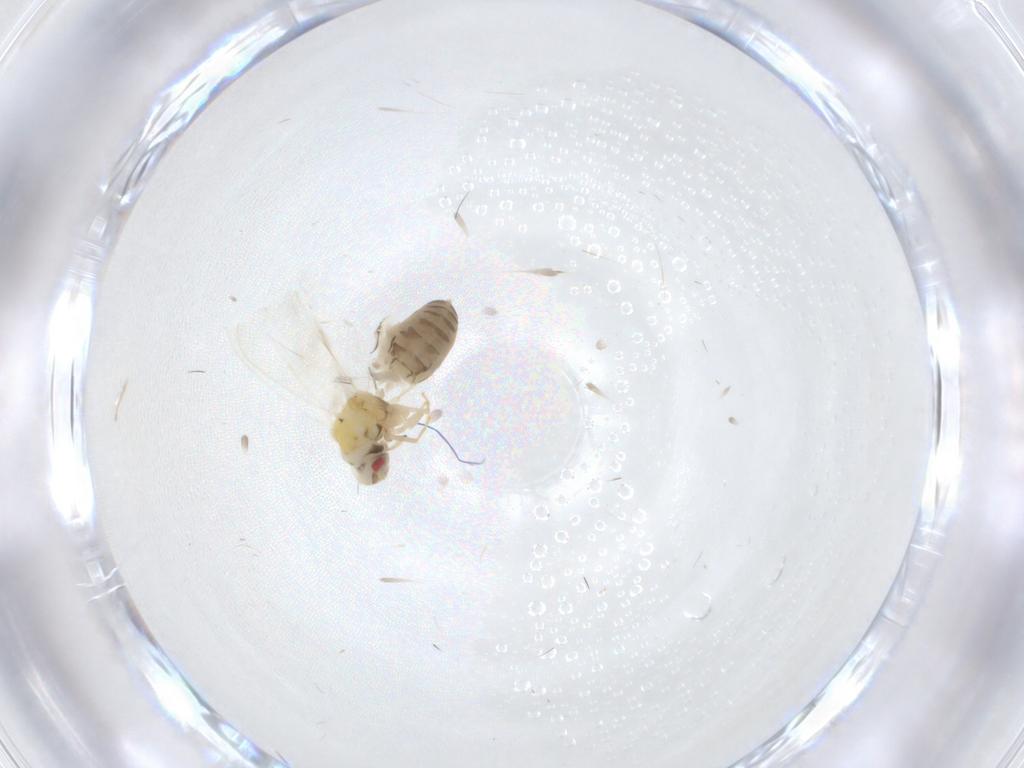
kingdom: Animalia
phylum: Arthropoda
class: Insecta
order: Hemiptera
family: Aleyrodidae
